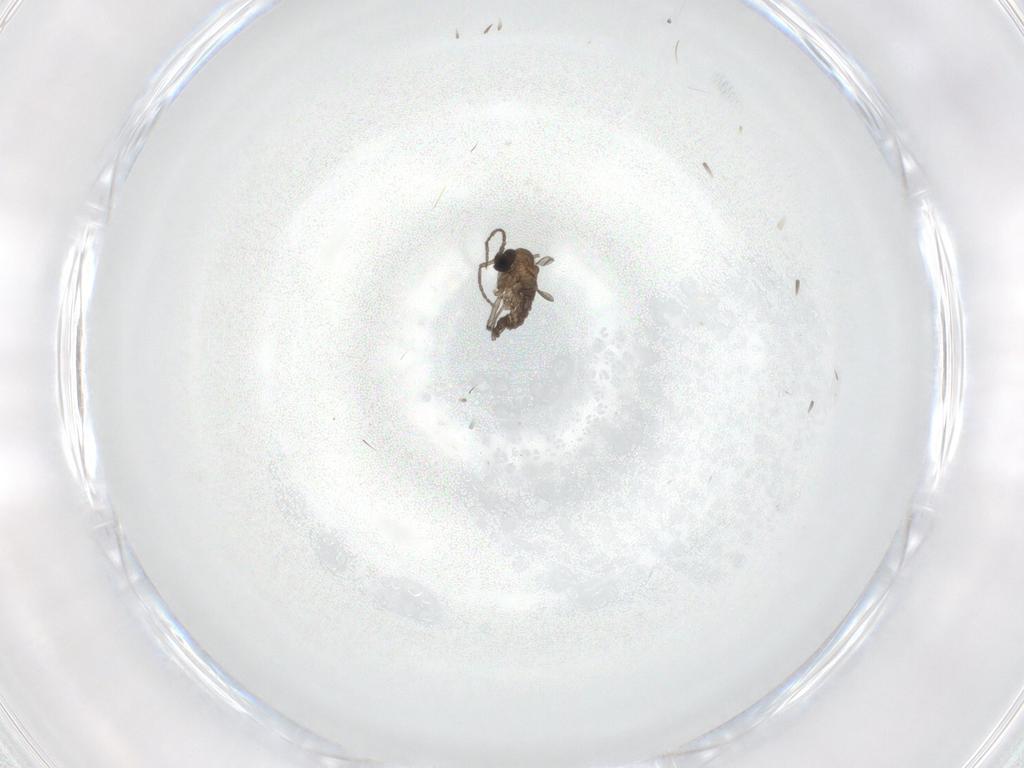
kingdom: Animalia
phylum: Arthropoda
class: Insecta
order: Diptera
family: Sciaridae
